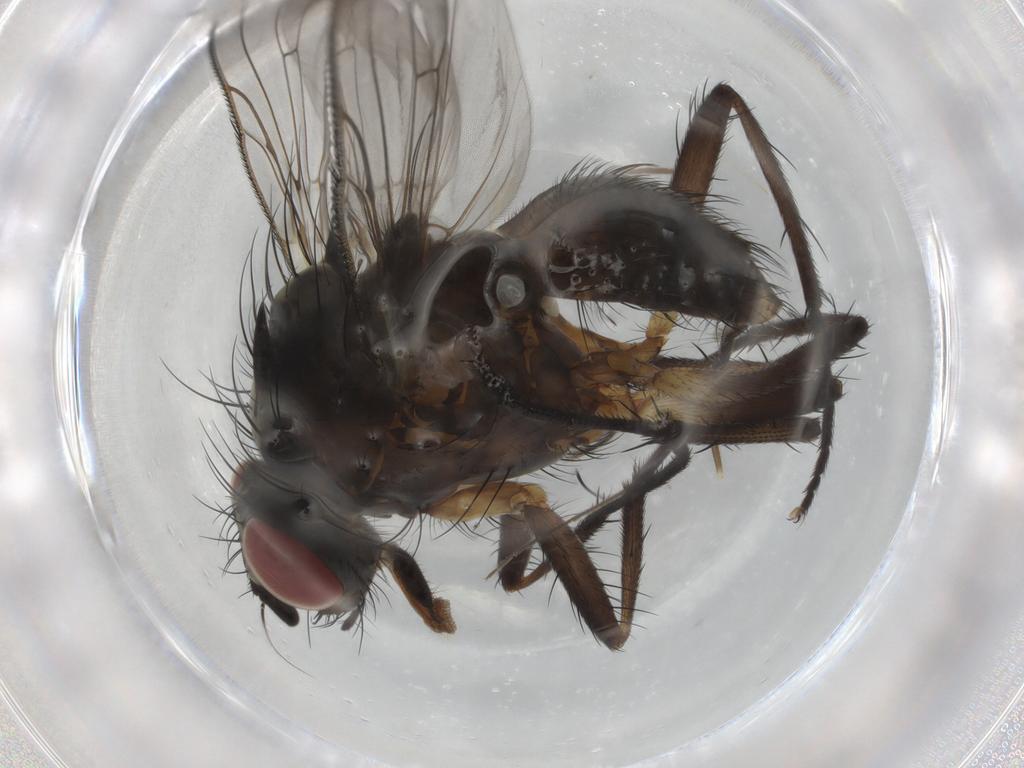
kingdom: Animalia
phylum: Arthropoda
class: Insecta
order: Diptera
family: Anthomyiidae
